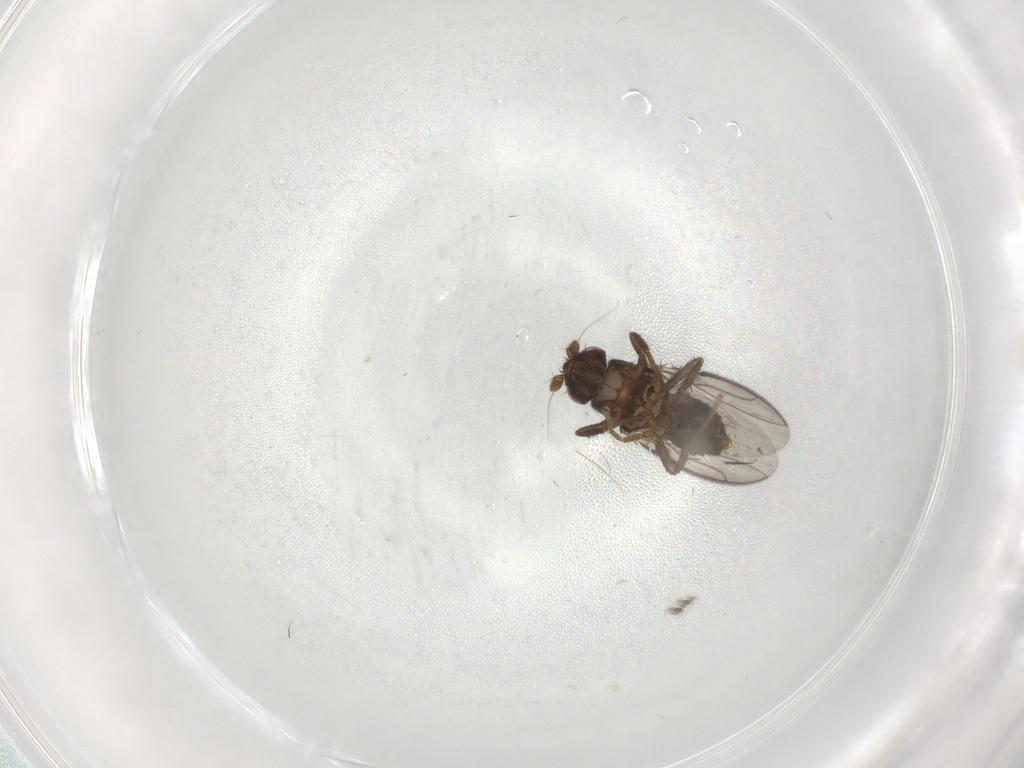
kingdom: Animalia
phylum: Arthropoda
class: Insecta
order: Diptera
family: Sphaeroceridae
